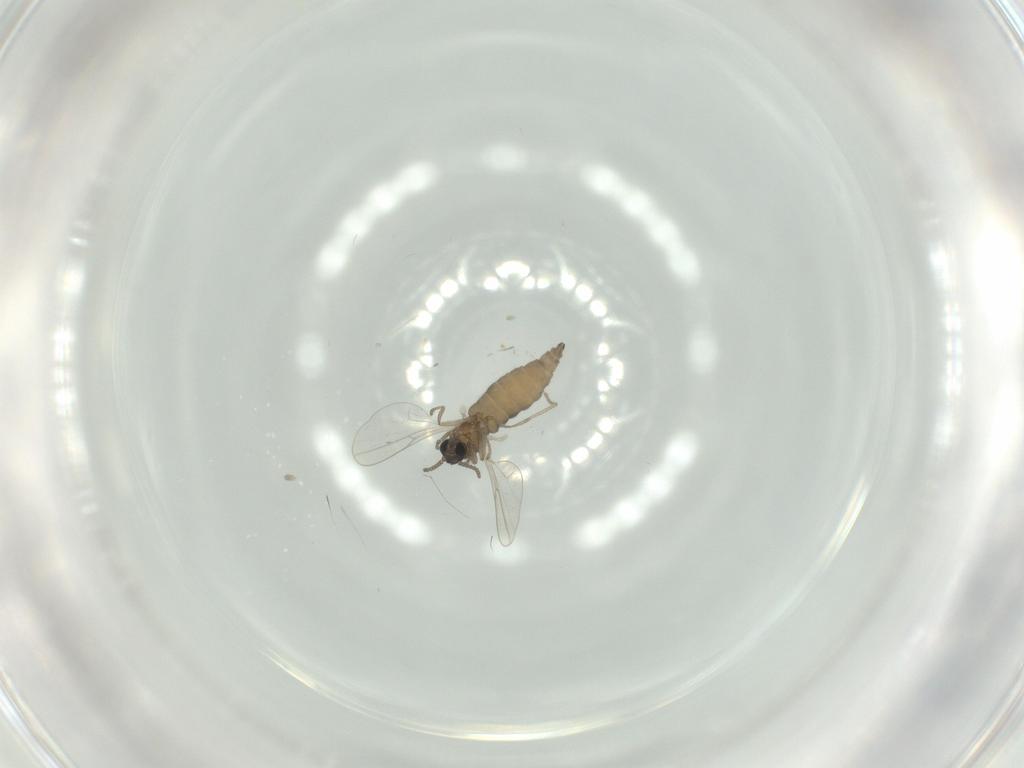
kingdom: Animalia
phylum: Arthropoda
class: Insecta
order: Diptera
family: Cecidomyiidae
